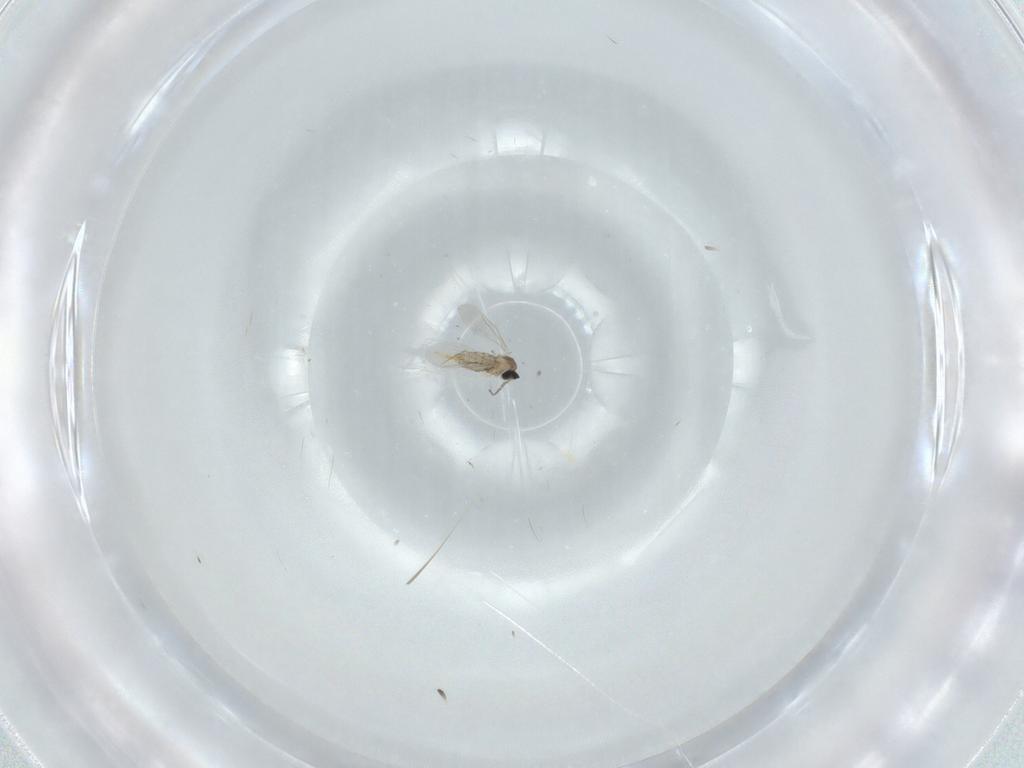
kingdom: Animalia
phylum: Arthropoda
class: Insecta
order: Diptera
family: Cecidomyiidae
